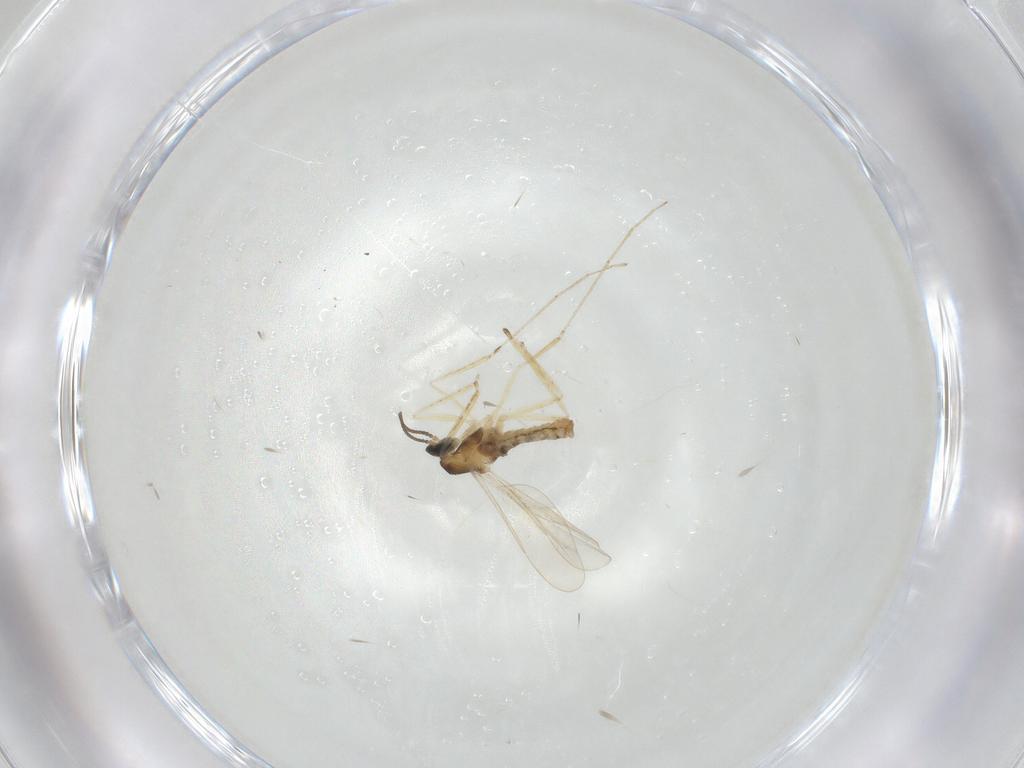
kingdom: Animalia
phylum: Arthropoda
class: Insecta
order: Diptera
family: Cecidomyiidae
